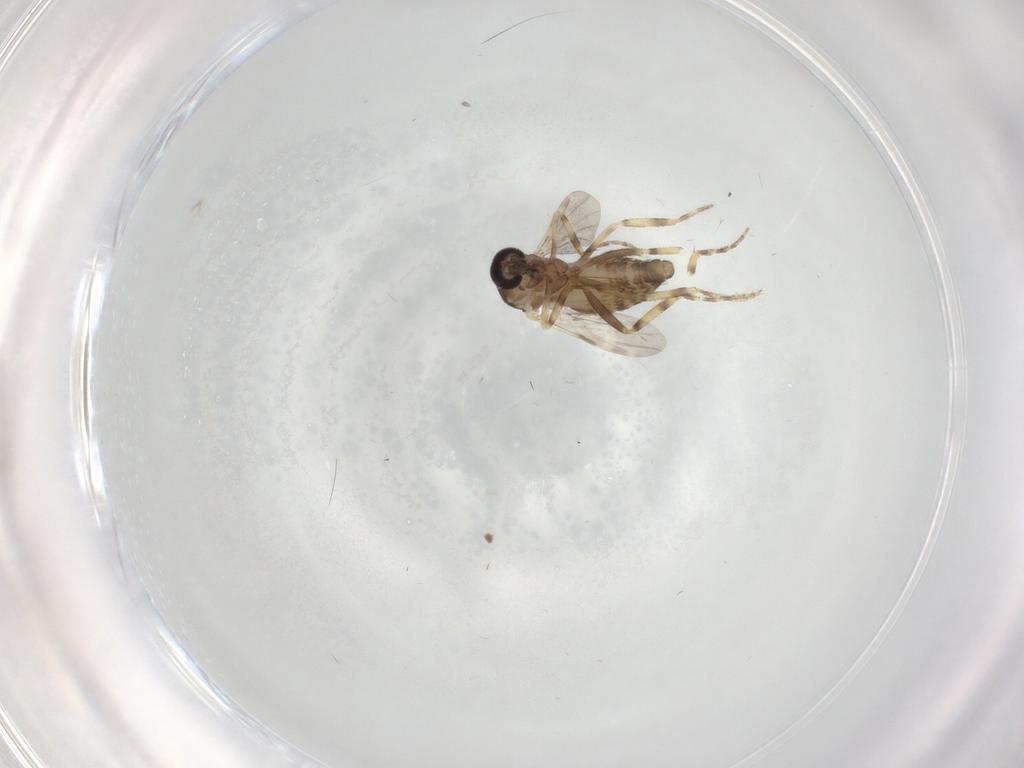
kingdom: Animalia
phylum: Arthropoda
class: Insecta
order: Diptera
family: Ceratopogonidae
